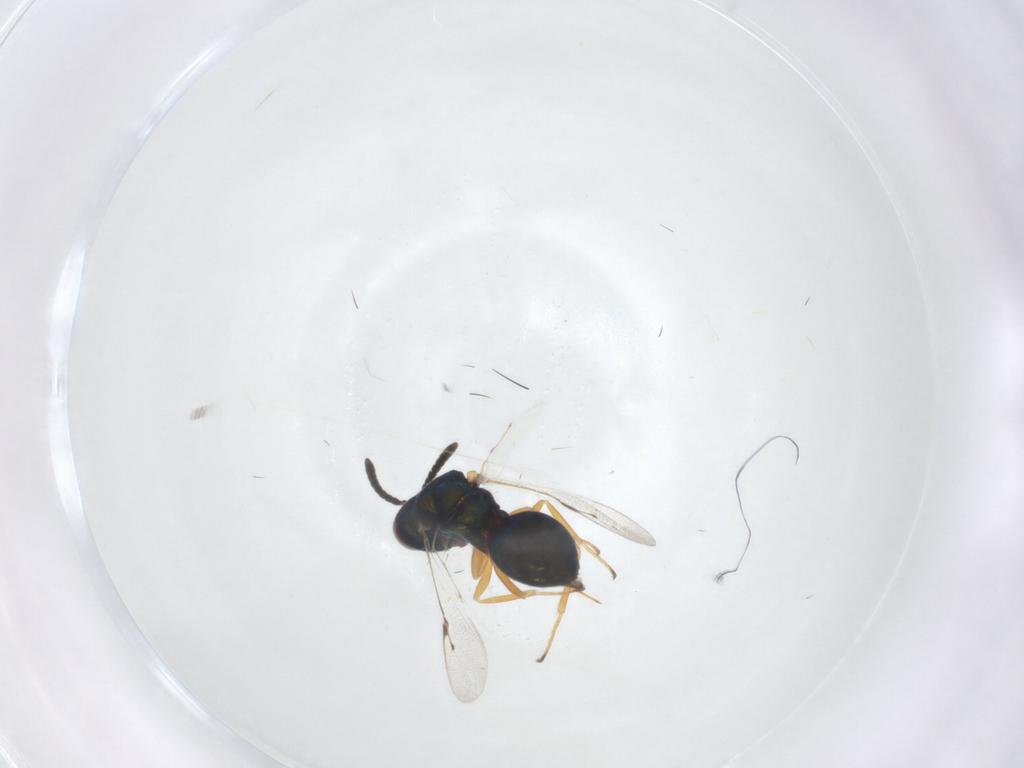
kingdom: Animalia
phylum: Arthropoda
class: Insecta
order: Hymenoptera
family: Pteromalidae
